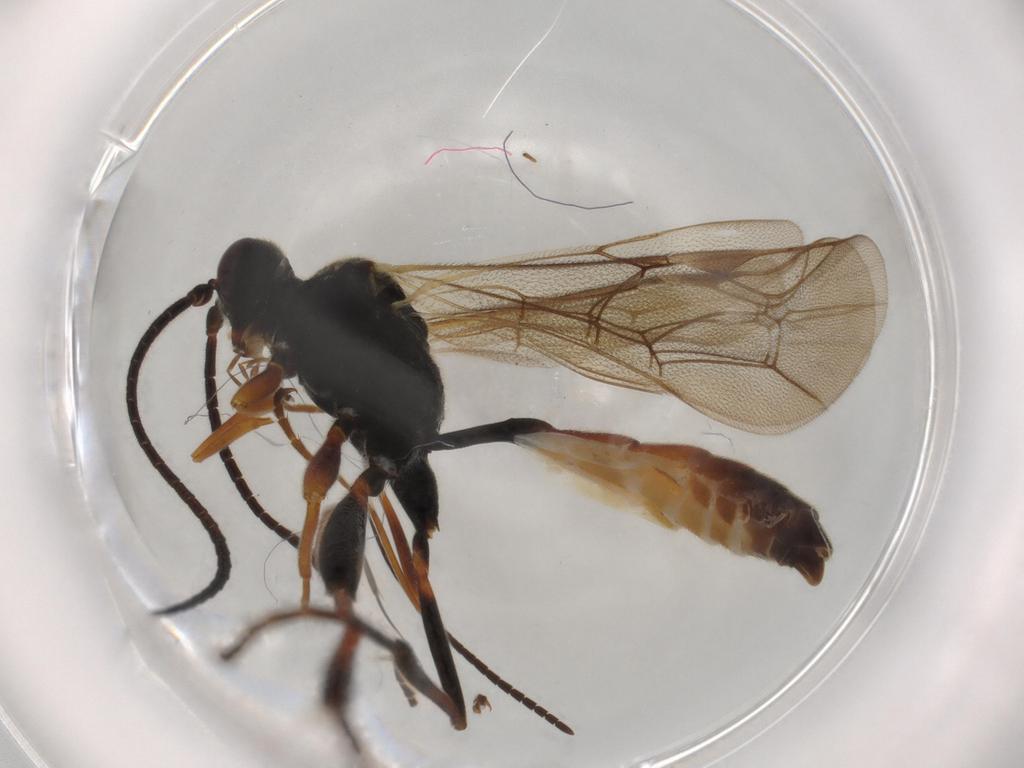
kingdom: Animalia
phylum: Arthropoda
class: Insecta
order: Hymenoptera
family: Ichneumonidae
